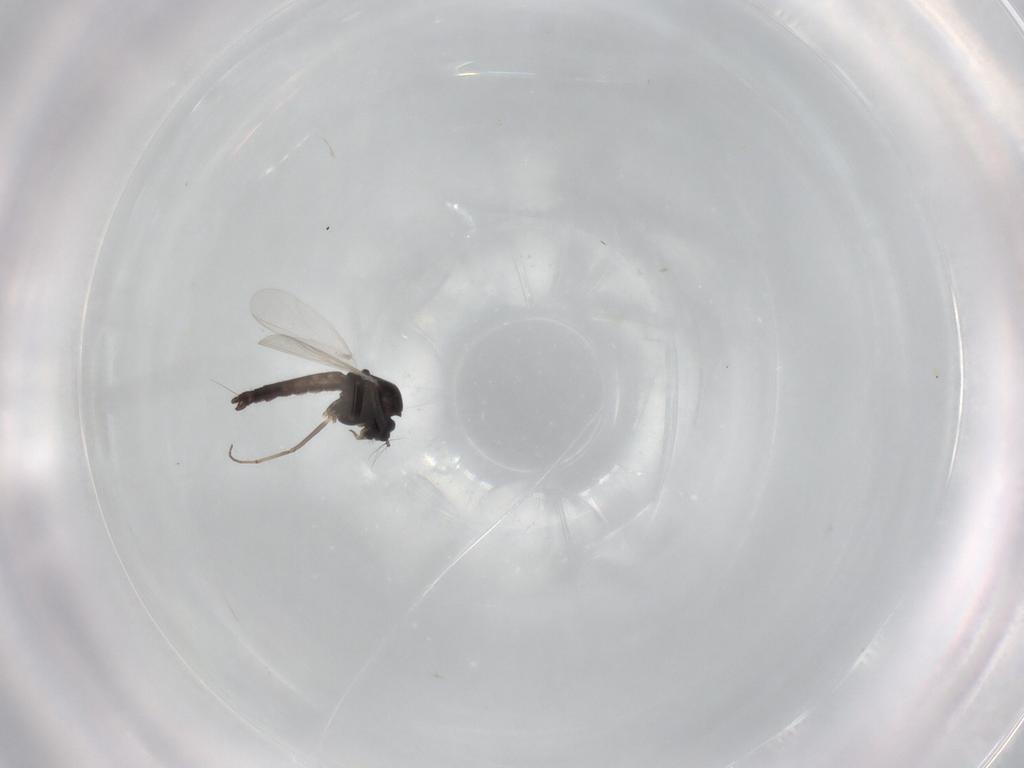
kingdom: Animalia
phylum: Arthropoda
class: Insecta
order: Diptera
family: Chironomidae
